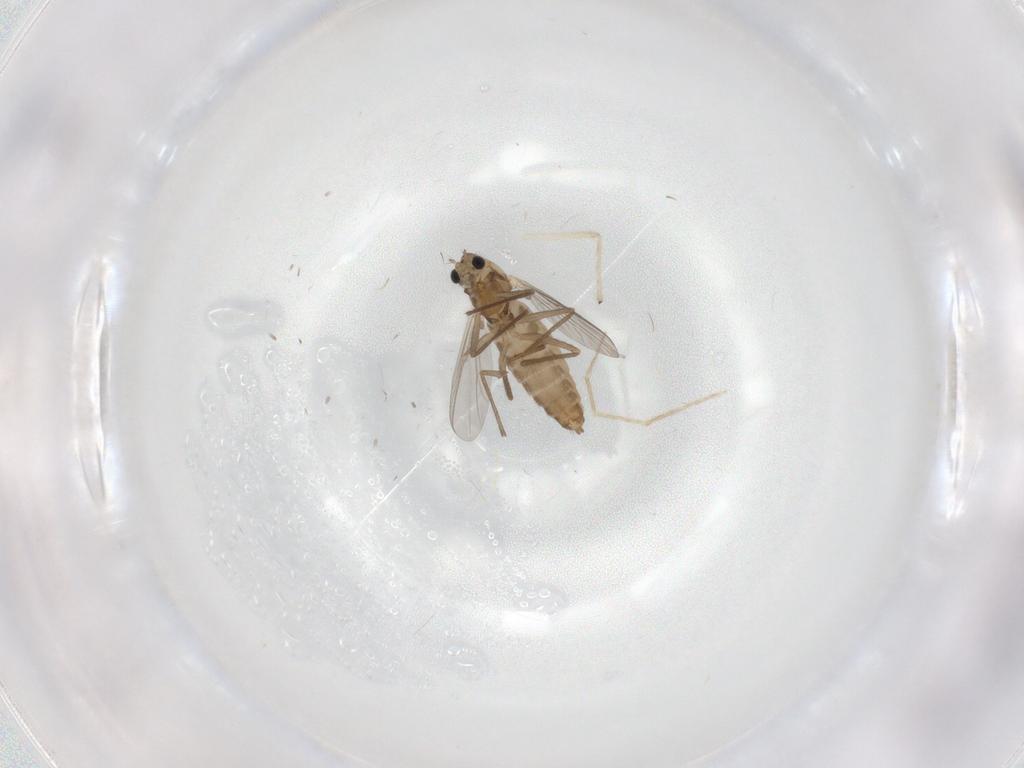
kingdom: Animalia
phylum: Arthropoda
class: Insecta
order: Diptera
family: Chironomidae
